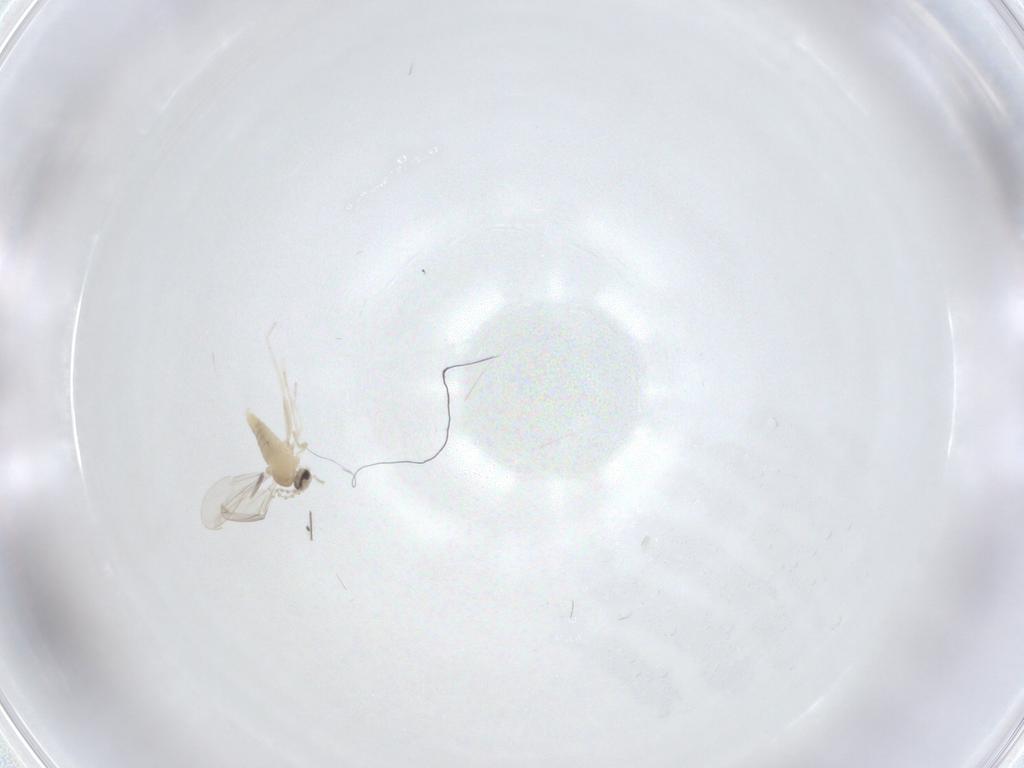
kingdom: Animalia
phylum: Arthropoda
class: Insecta
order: Diptera
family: Cecidomyiidae
